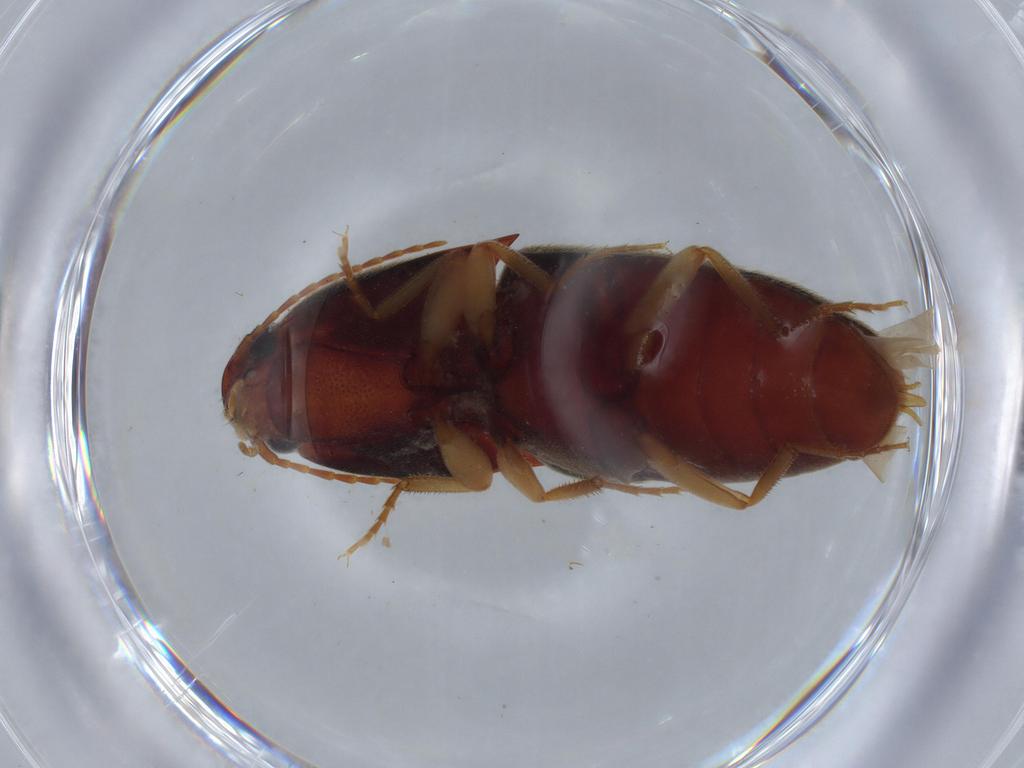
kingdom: Animalia
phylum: Arthropoda
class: Insecta
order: Coleoptera
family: Elateridae
